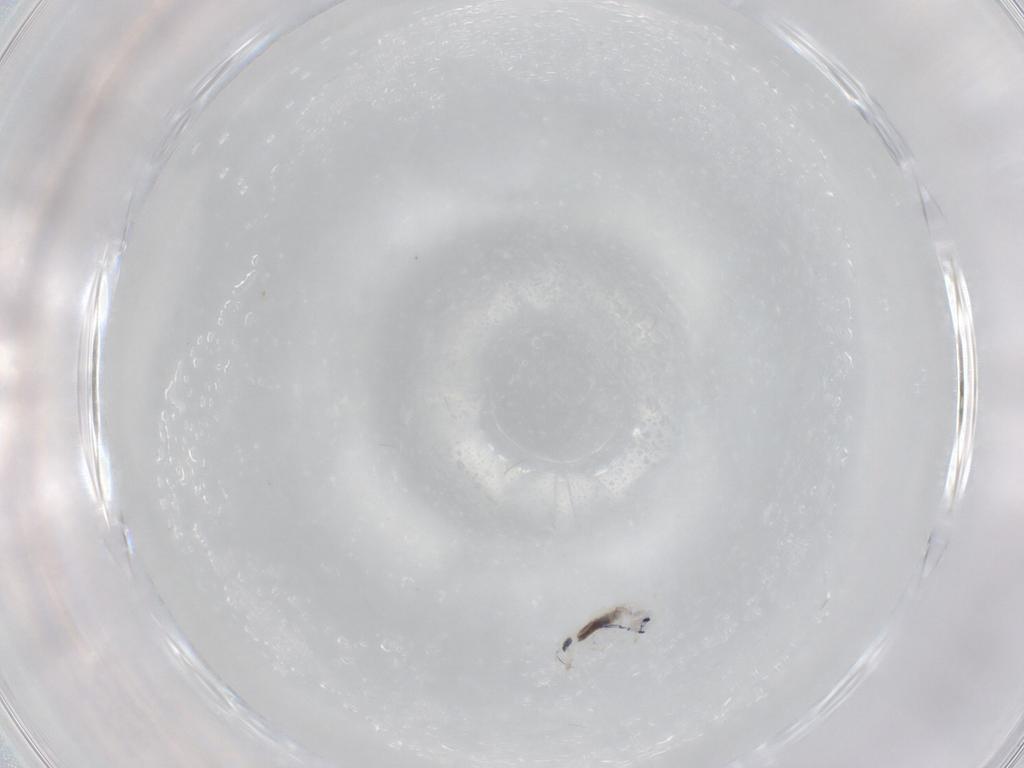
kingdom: Animalia
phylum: Arthropoda
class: Collembola
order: Entomobryomorpha
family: Entomobryidae
